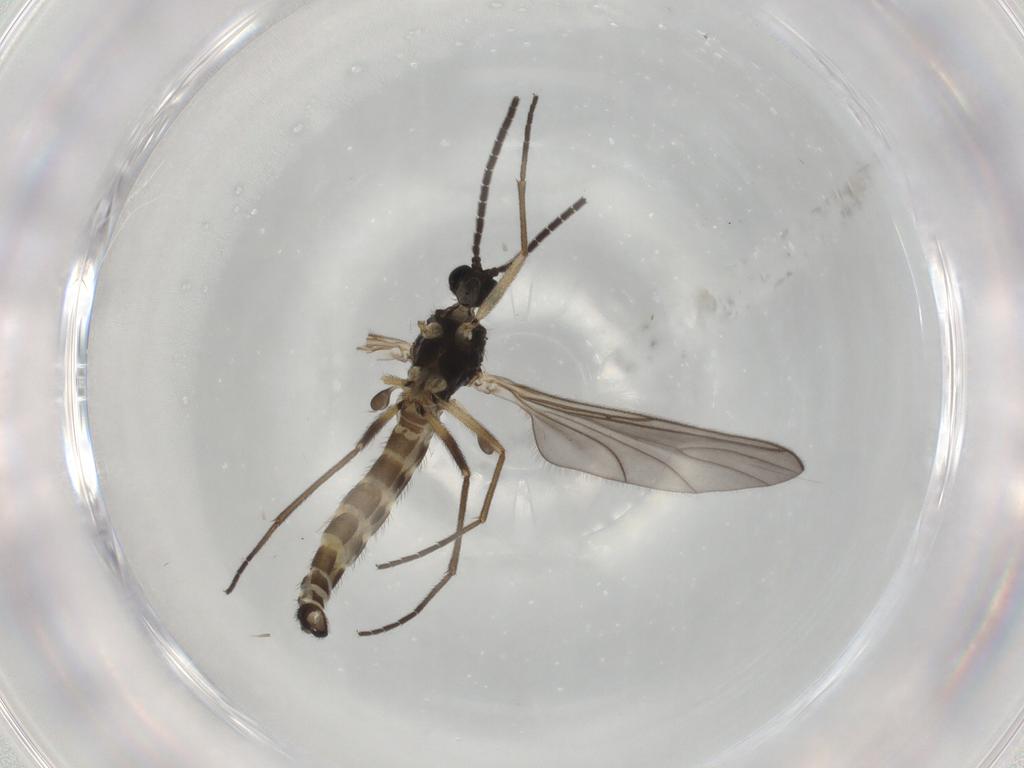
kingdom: Animalia
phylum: Arthropoda
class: Insecta
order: Diptera
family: Sciaridae
